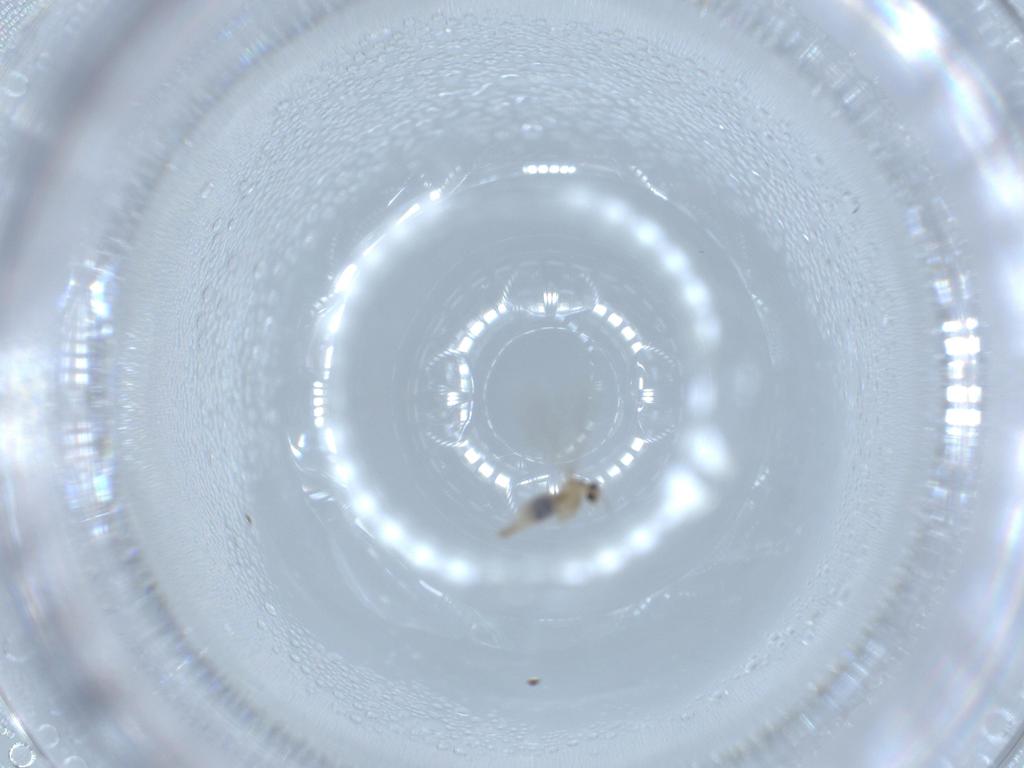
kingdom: Animalia
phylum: Arthropoda
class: Insecta
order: Diptera
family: Cecidomyiidae
